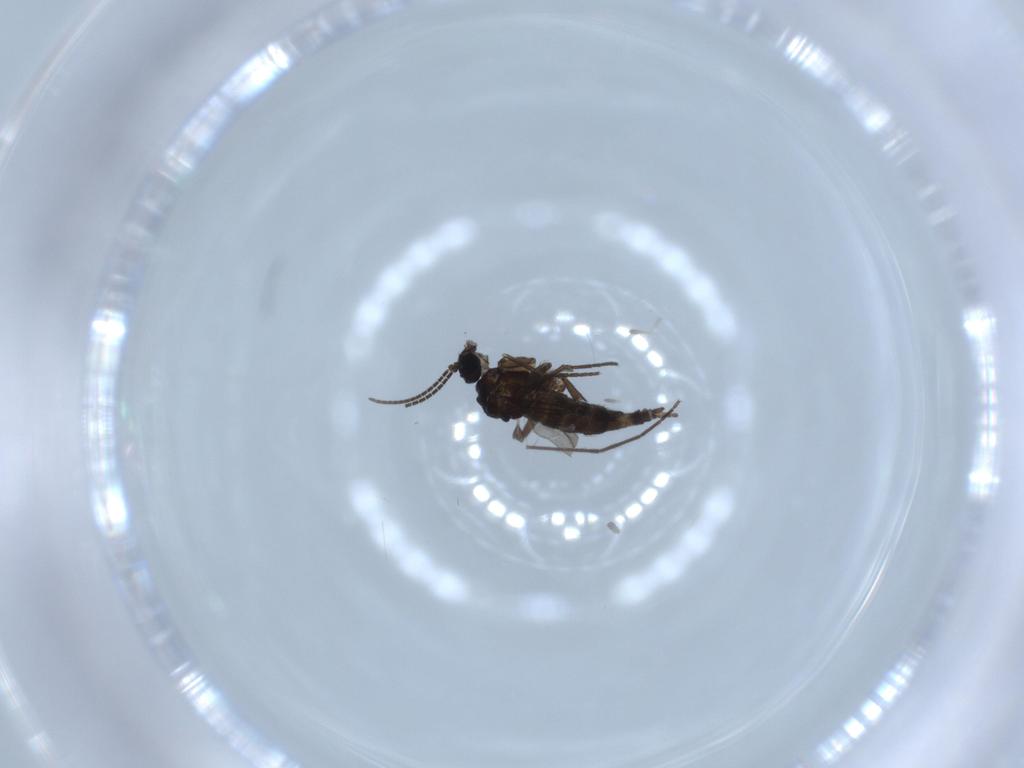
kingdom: Animalia
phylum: Arthropoda
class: Insecta
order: Diptera
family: Sciaridae
